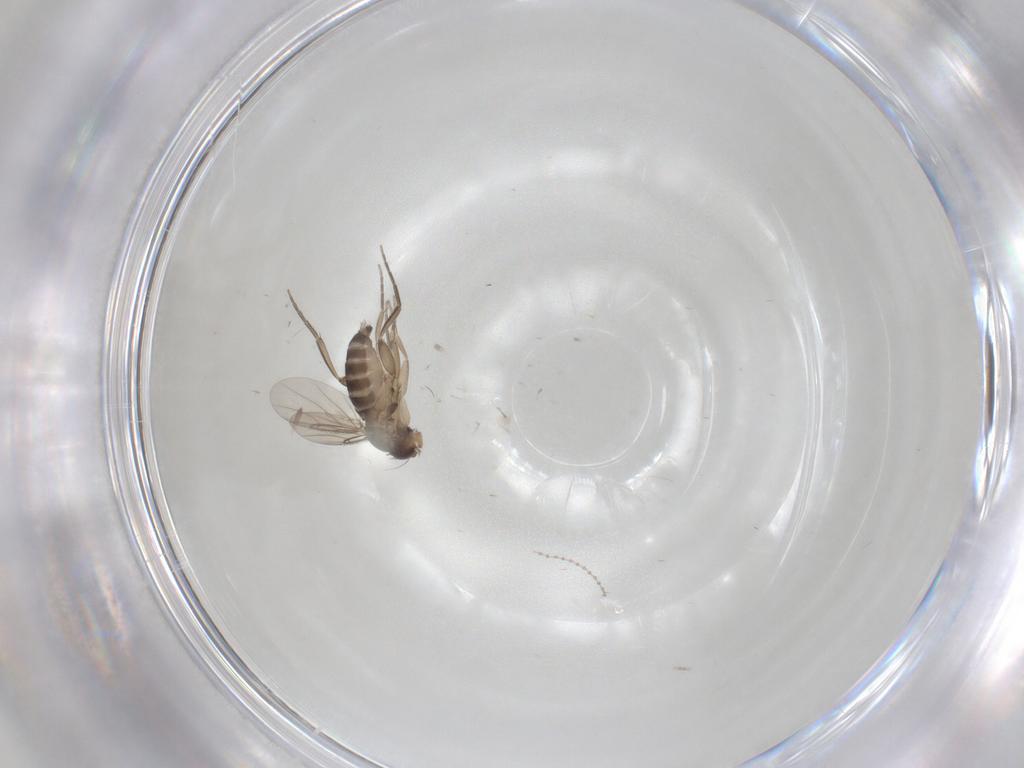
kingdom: Animalia
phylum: Arthropoda
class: Insecta
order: Diptera
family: Phoridae
